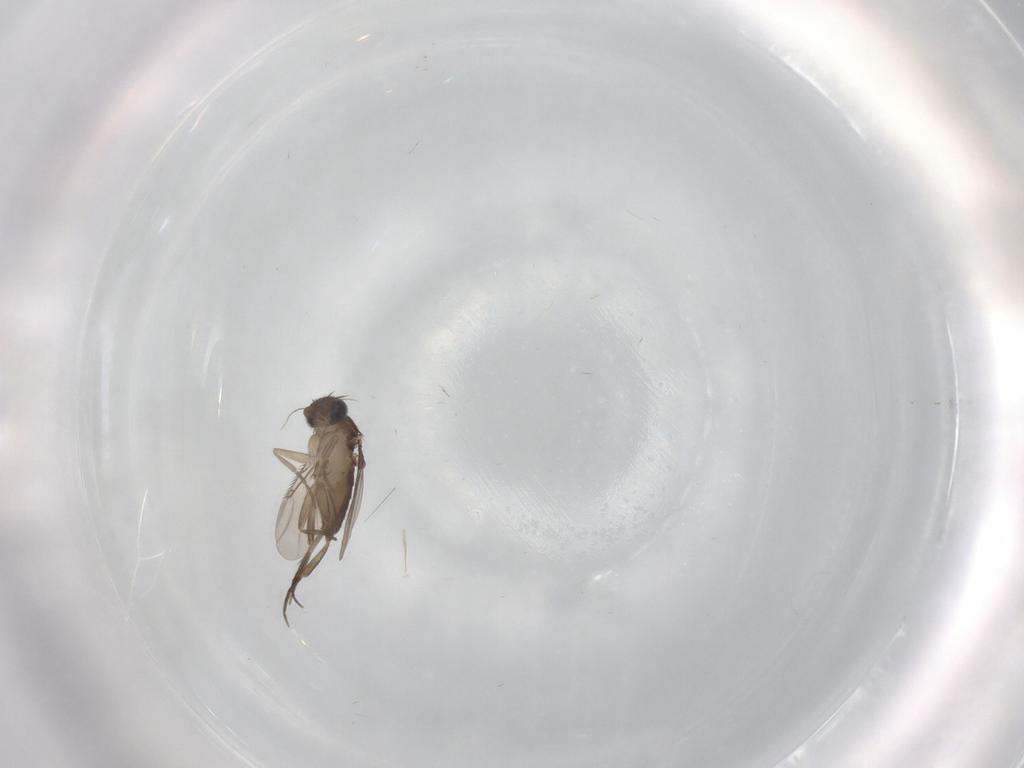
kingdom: Animalia
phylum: Arthropoda
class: Insecta
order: Diptera
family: Phoridae
